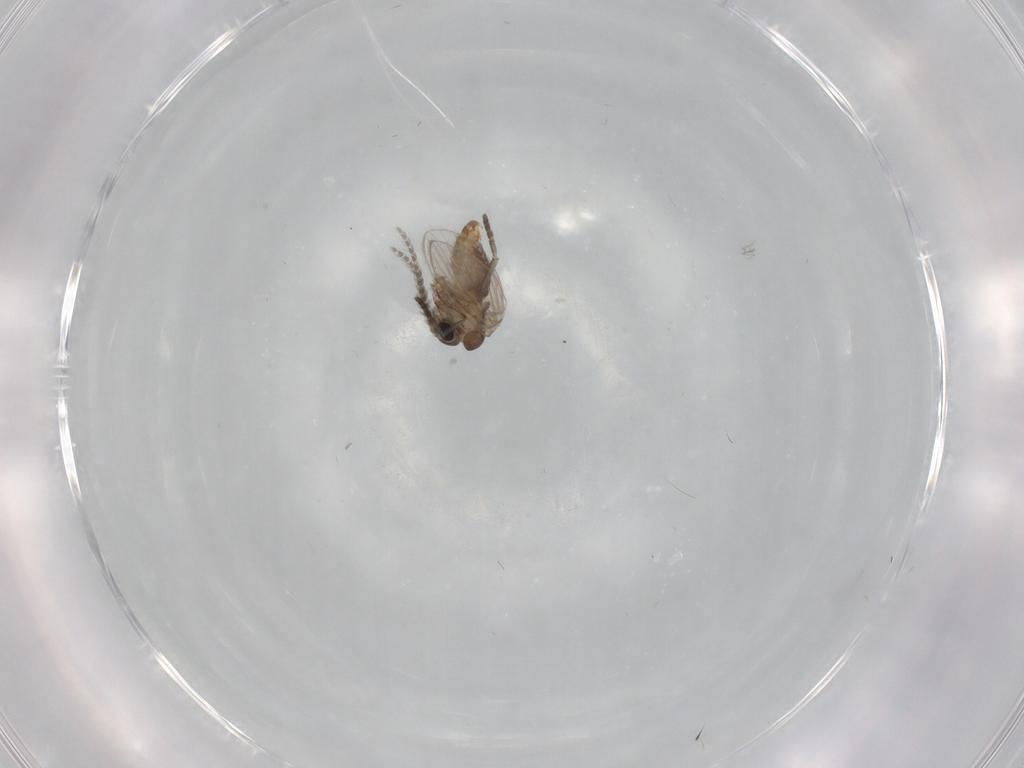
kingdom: Animalia
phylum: Arthropoda
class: Insecta
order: Diptera
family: Psychodidae
